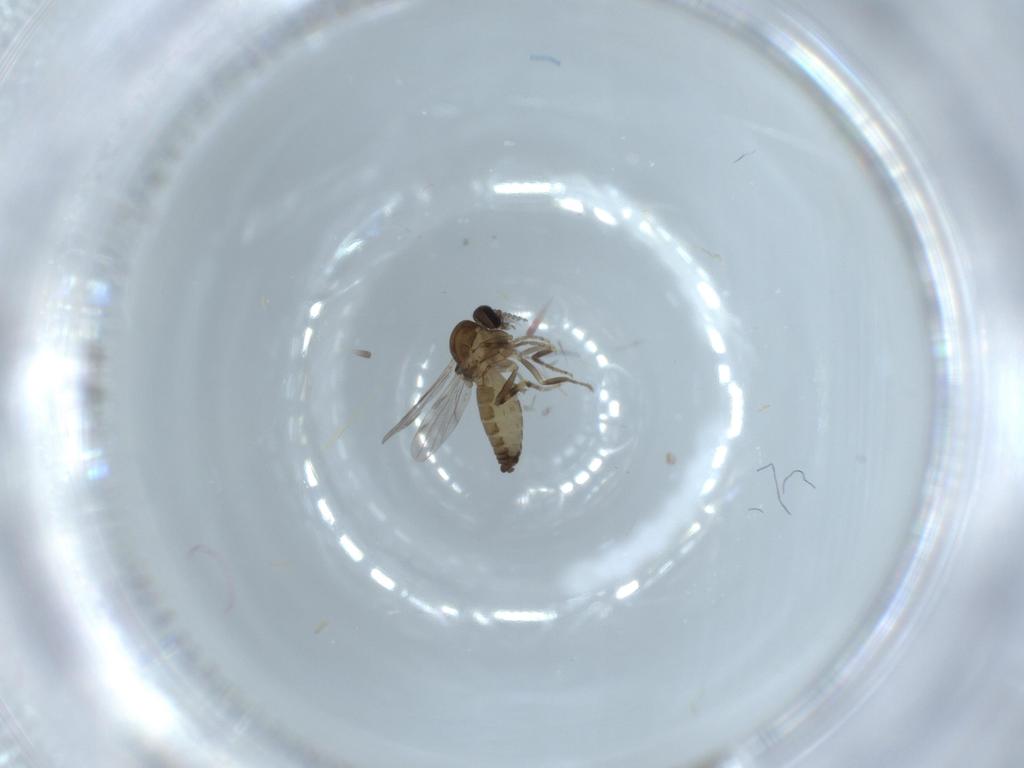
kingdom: Animalia
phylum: Arthropoda
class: Insecta
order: Diptera
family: Ceratopogonidae
